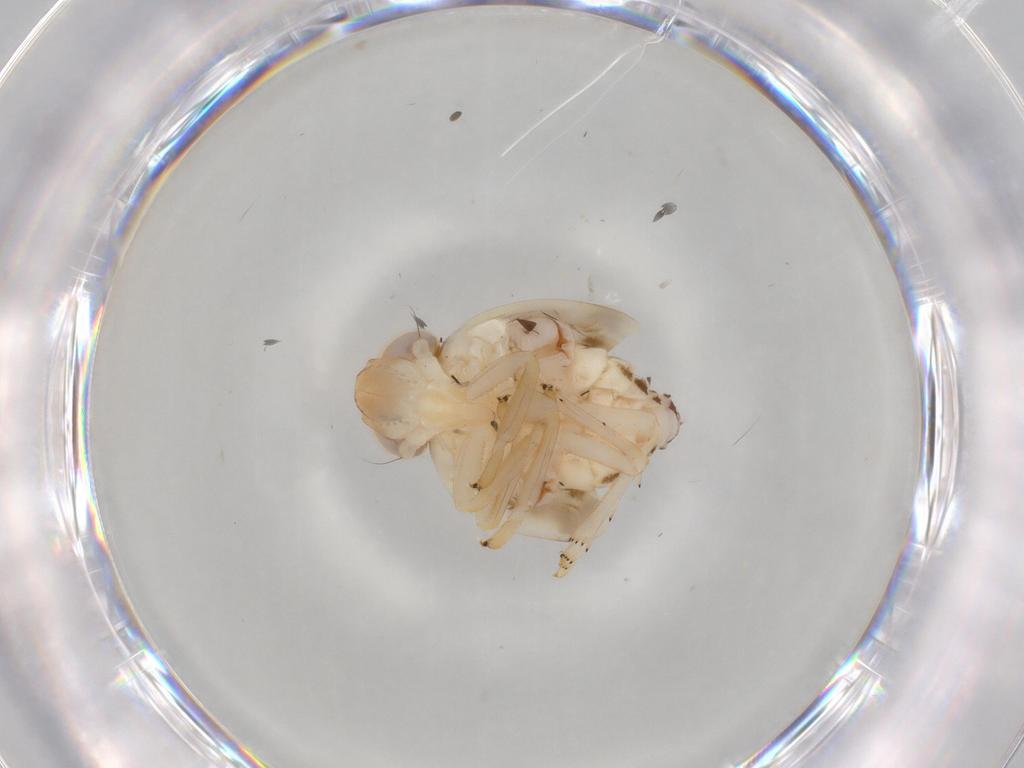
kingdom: Animalia
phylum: Arthropoda
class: Insecta
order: Hemiptera
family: Nogodinidae
